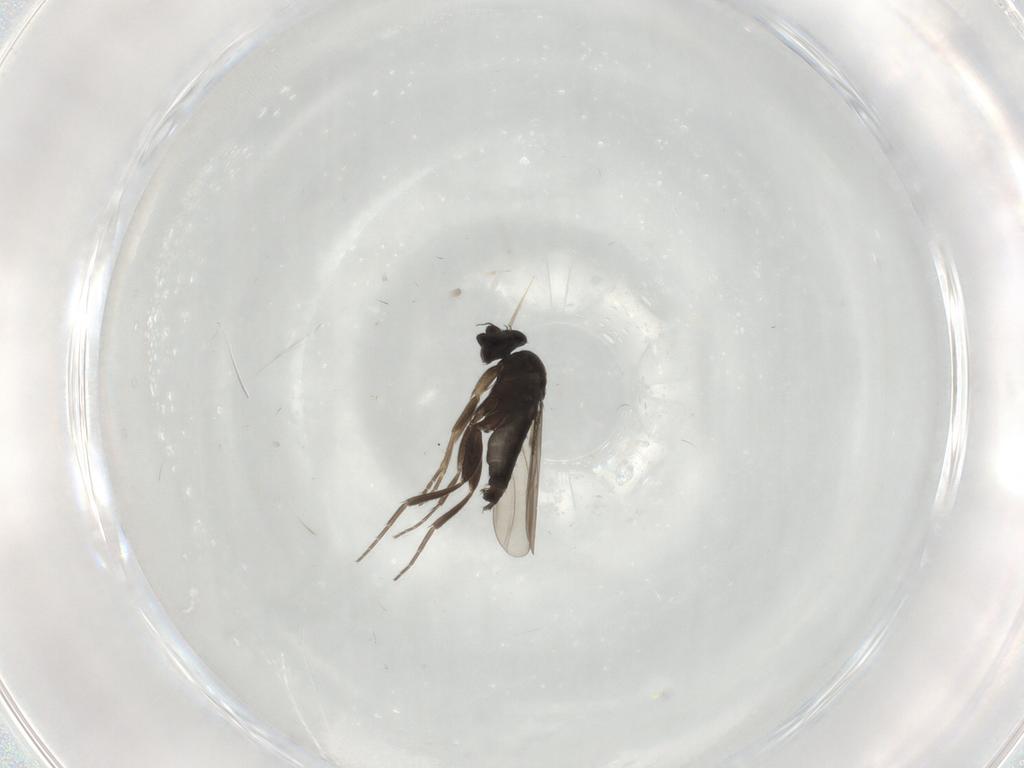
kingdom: Animalia
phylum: Arthropoda
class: Insecta
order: Diptera
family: Phoridae
